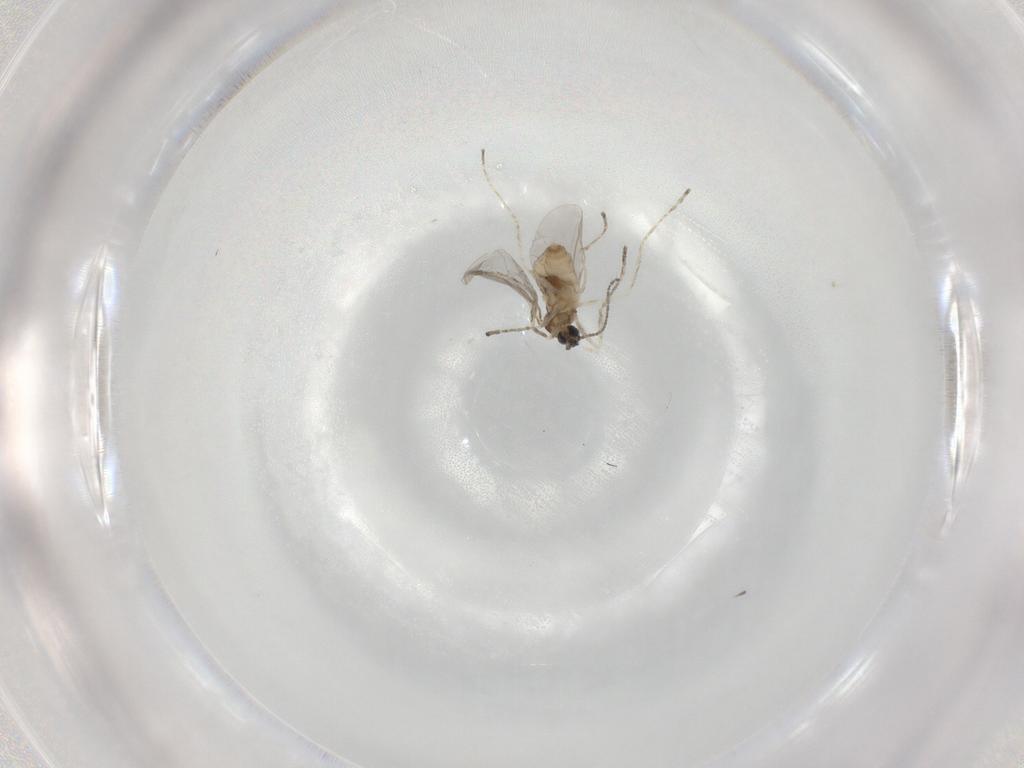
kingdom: Animalia
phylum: Arthropoda
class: Insecta
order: Diptera
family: Cecidomyiidae
